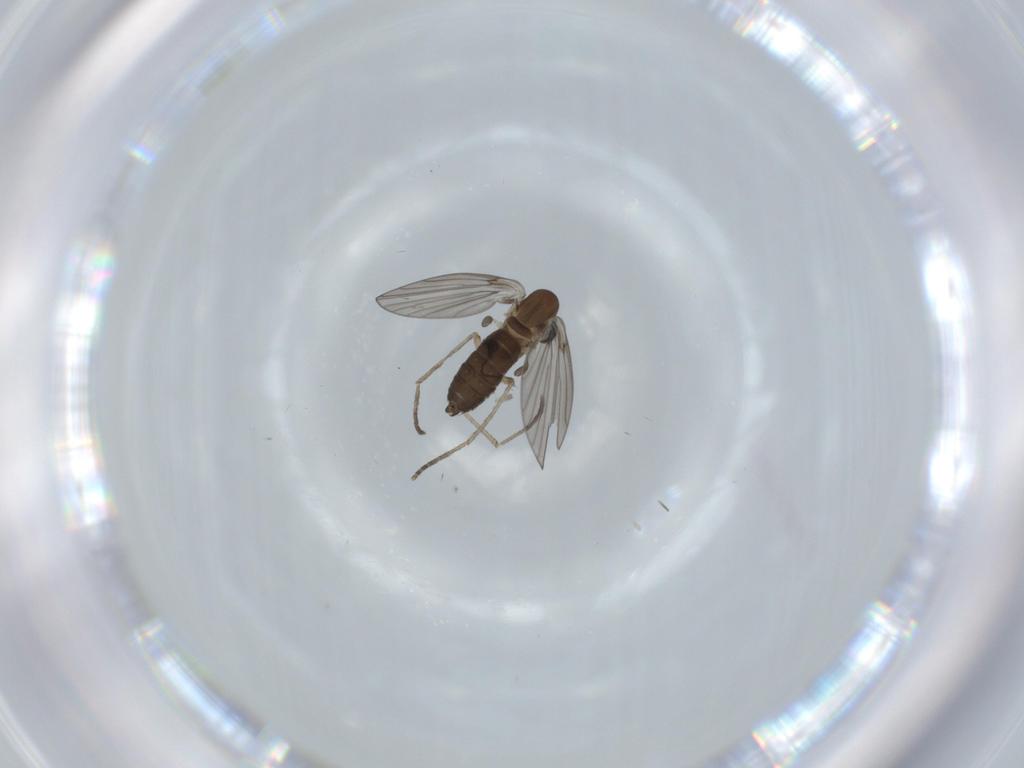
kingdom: Animalia
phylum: Arthropoda
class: Insecta
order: Diptera
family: Psychodidae
